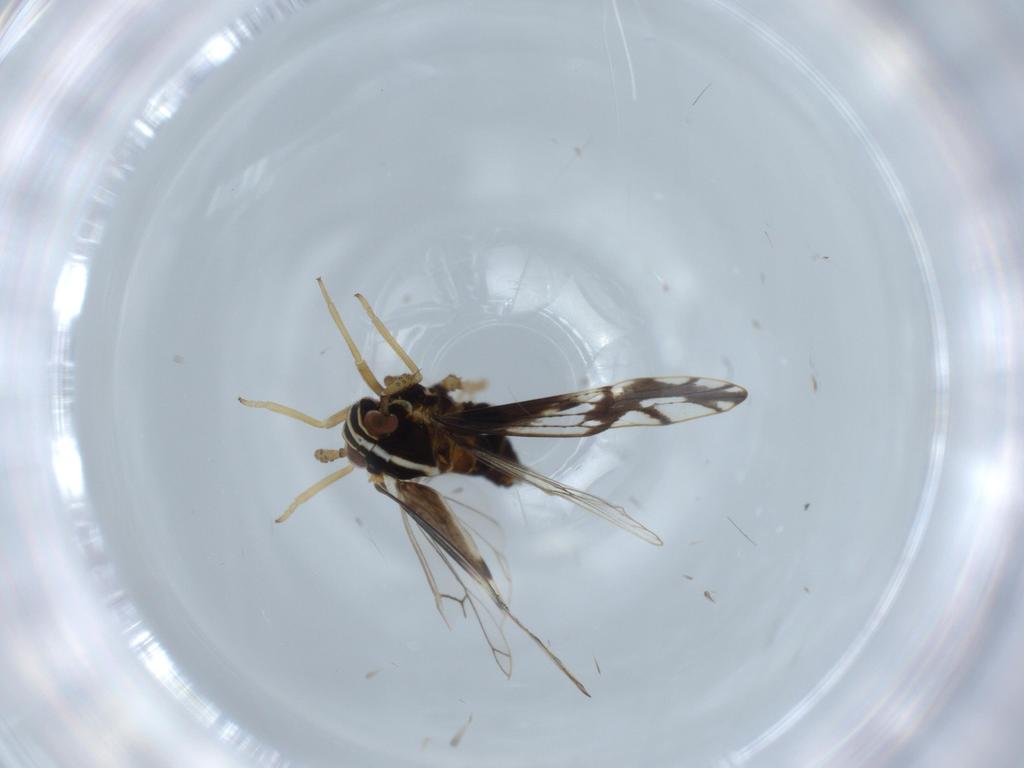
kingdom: Animalia
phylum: Arthropoda
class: Insecta
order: Hemiptera
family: Delphacidae
